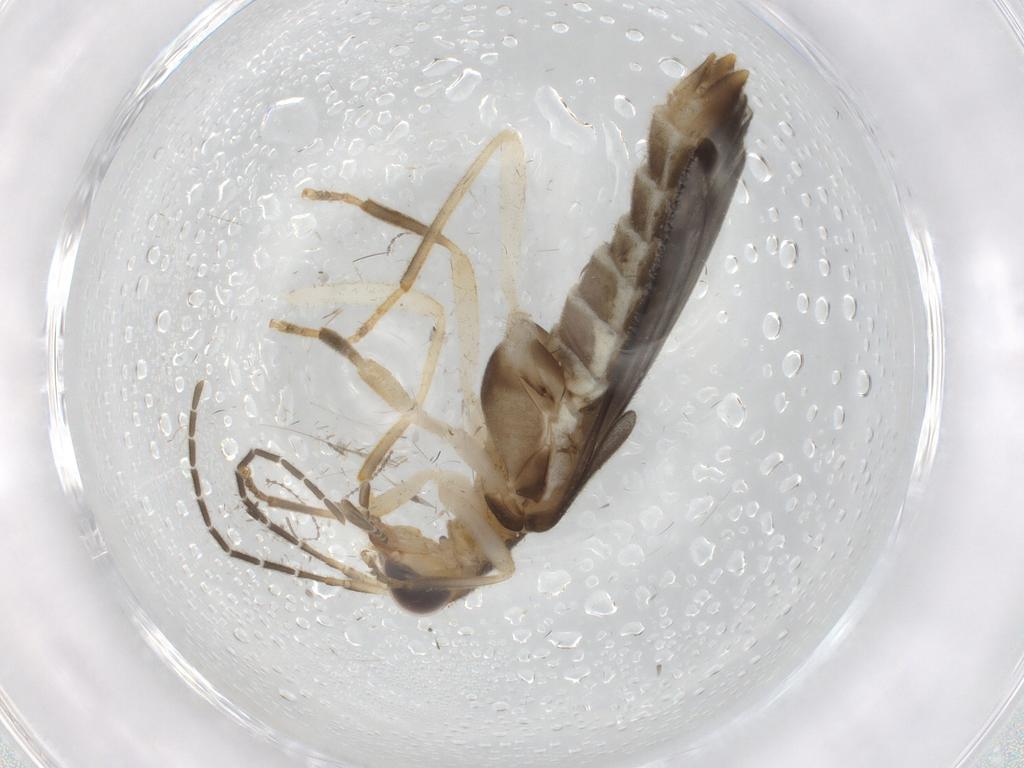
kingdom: Animalia
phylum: Arthropoda
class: Insecta
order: Coleoptera
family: Cantharidae
